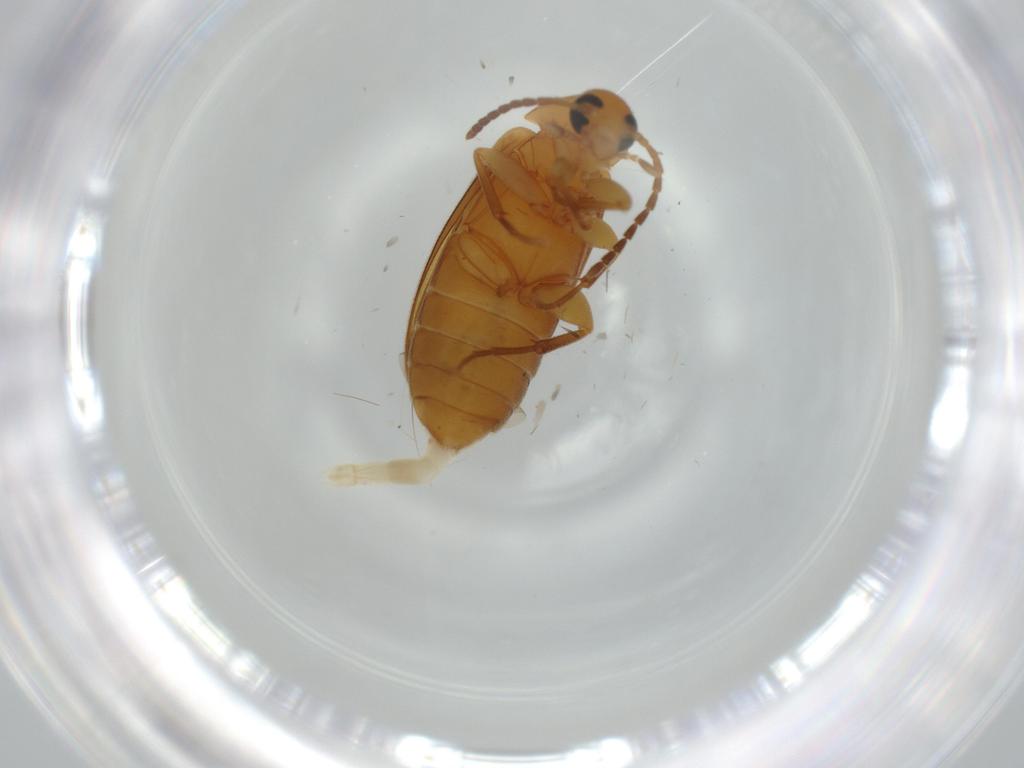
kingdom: Animalia
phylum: Arthropoda
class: Insecta
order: Coleoptera
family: Scraptiidae
